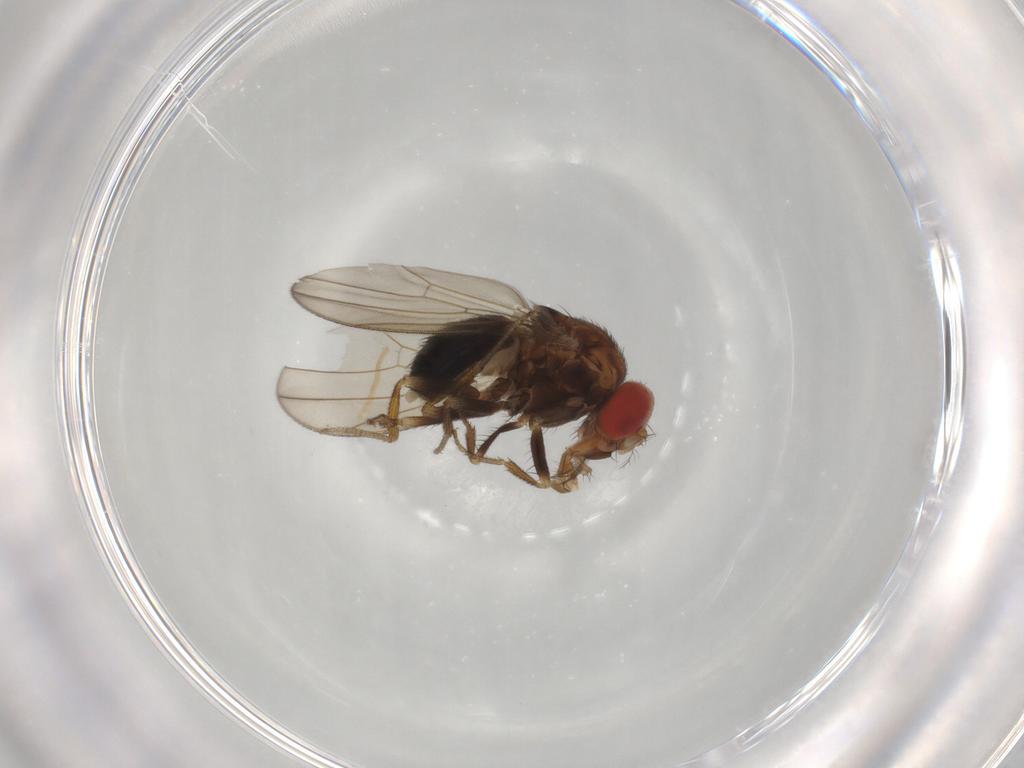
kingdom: Animalia
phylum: Arthropoda
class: Insecta
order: Diptera
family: Drosophilidae
